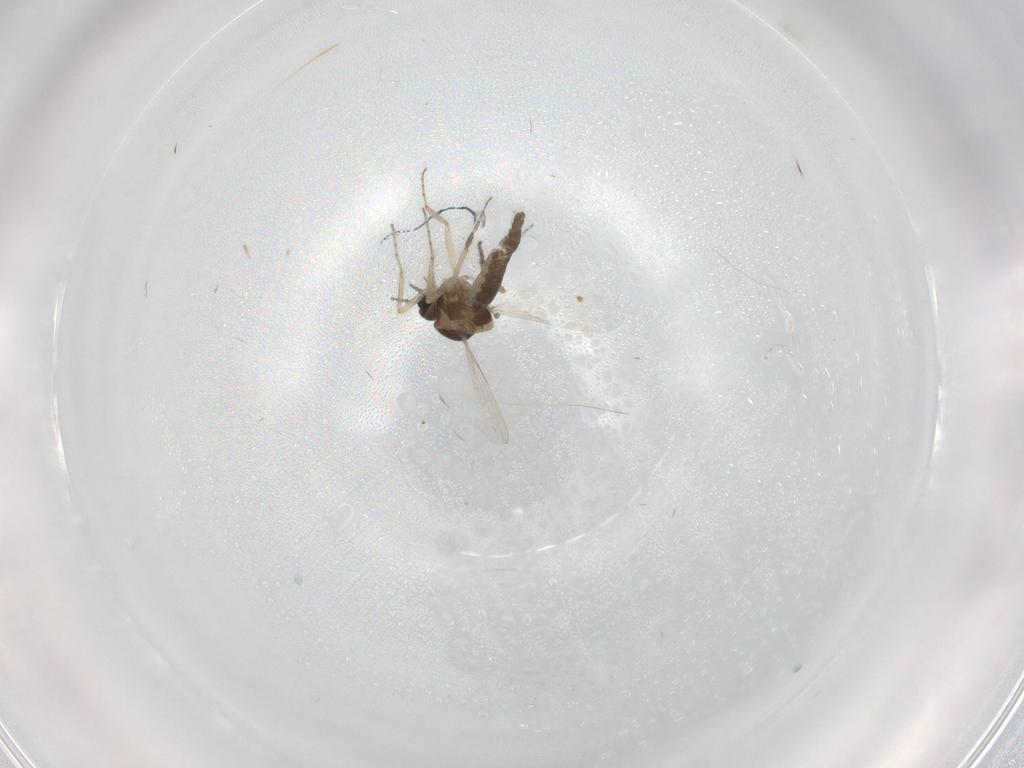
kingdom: Animalia
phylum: Arthropoda
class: Insecta
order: Diptera
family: Ceratopogonidae
